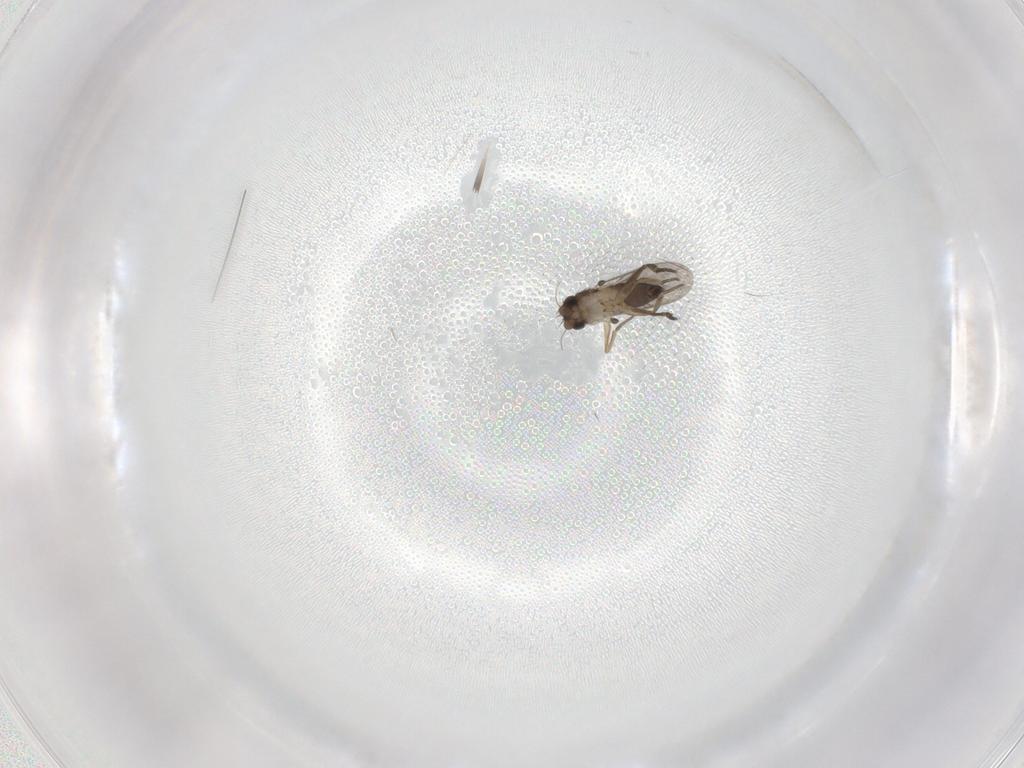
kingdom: Animalia
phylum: Arthropoda
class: Insecta
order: Diptera
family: Phoridae
